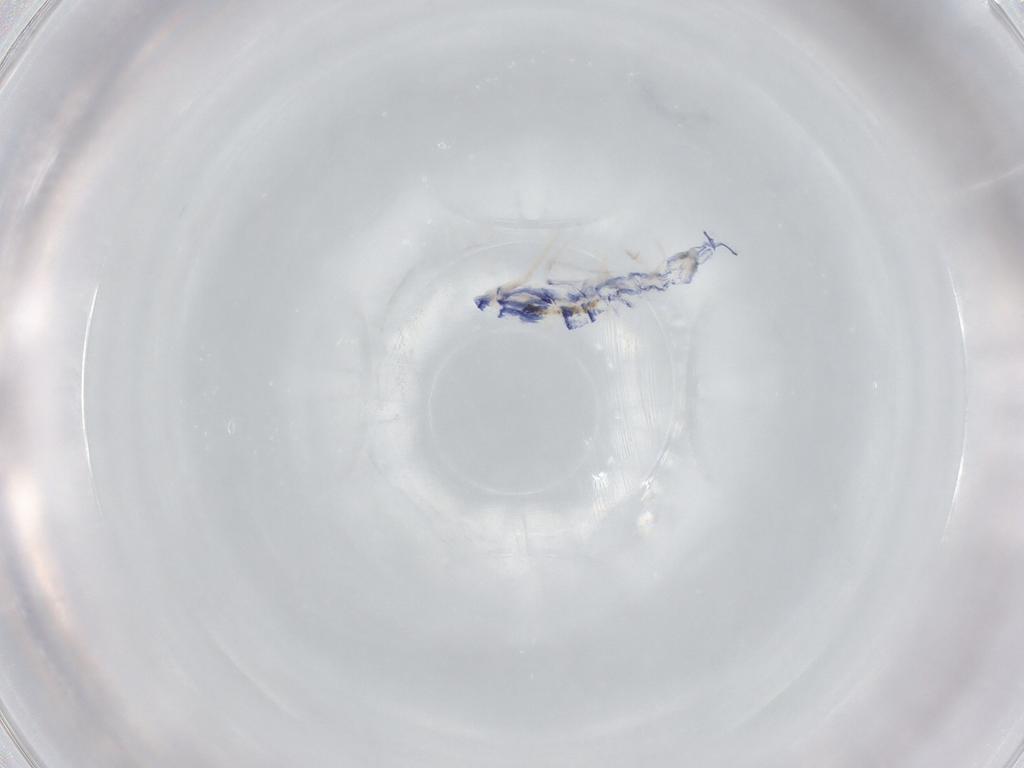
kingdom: Animalia
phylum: Arthropoda
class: Collembola
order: Entomobryomorpha
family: Entomobryidae
